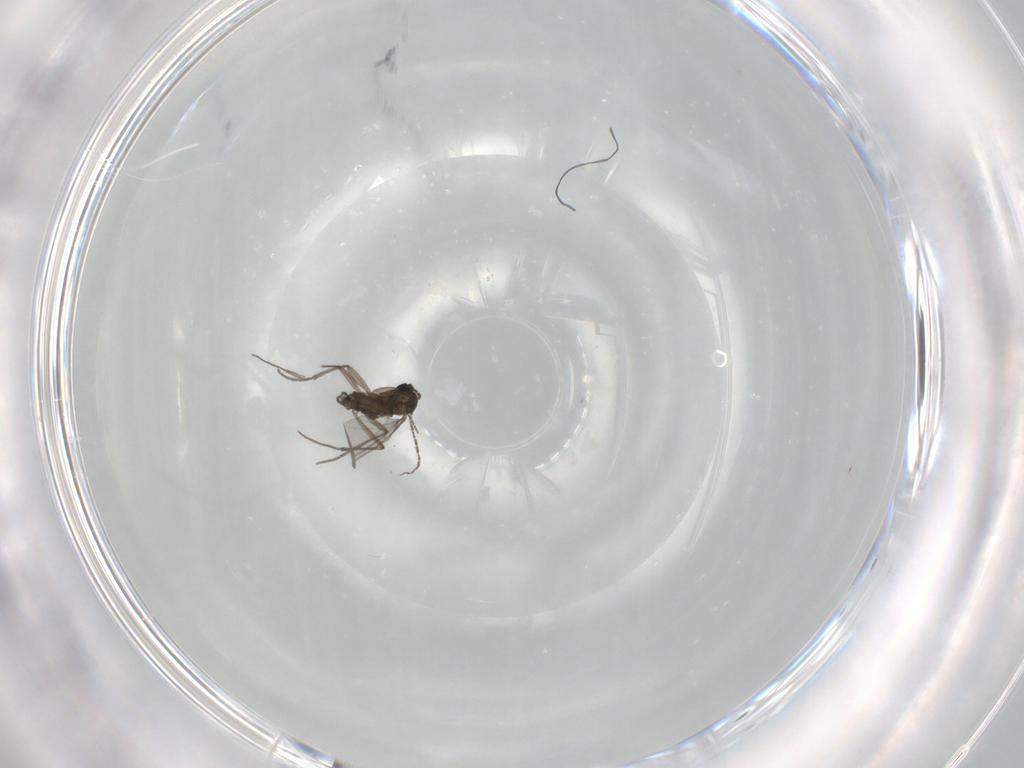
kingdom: Animalia
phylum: Arthropoda
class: Insecta
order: Diptera
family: Sciaridae
